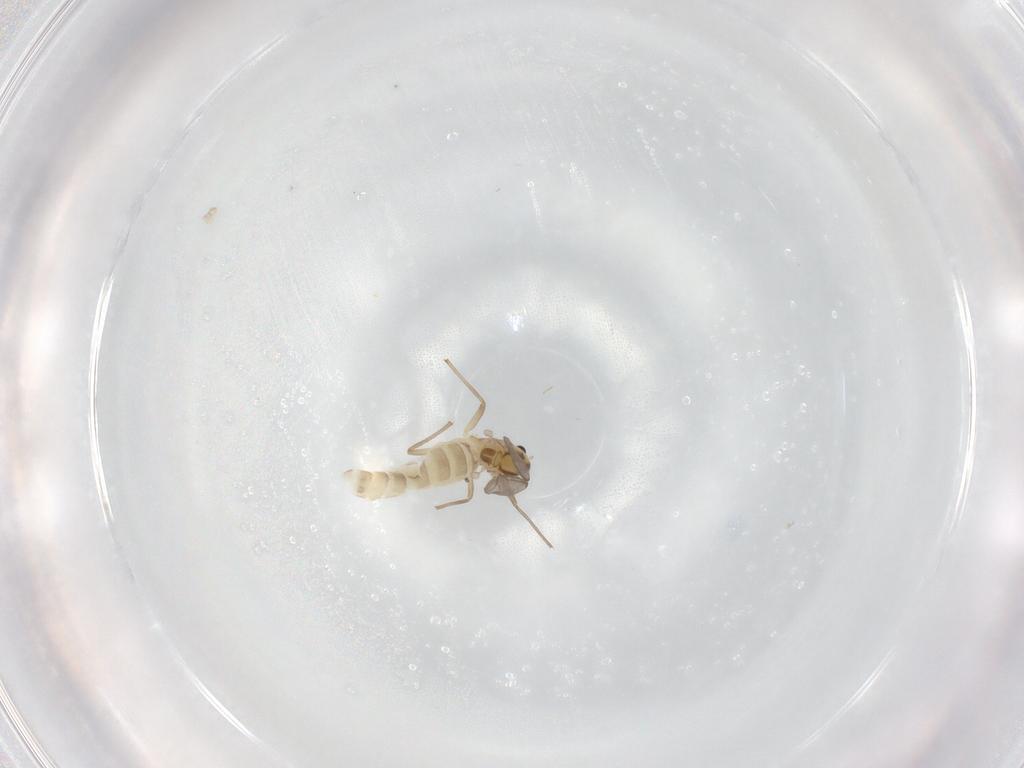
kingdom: Animalia
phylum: Arthropoda
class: Insecta
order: Diptera
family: Chironomidae
